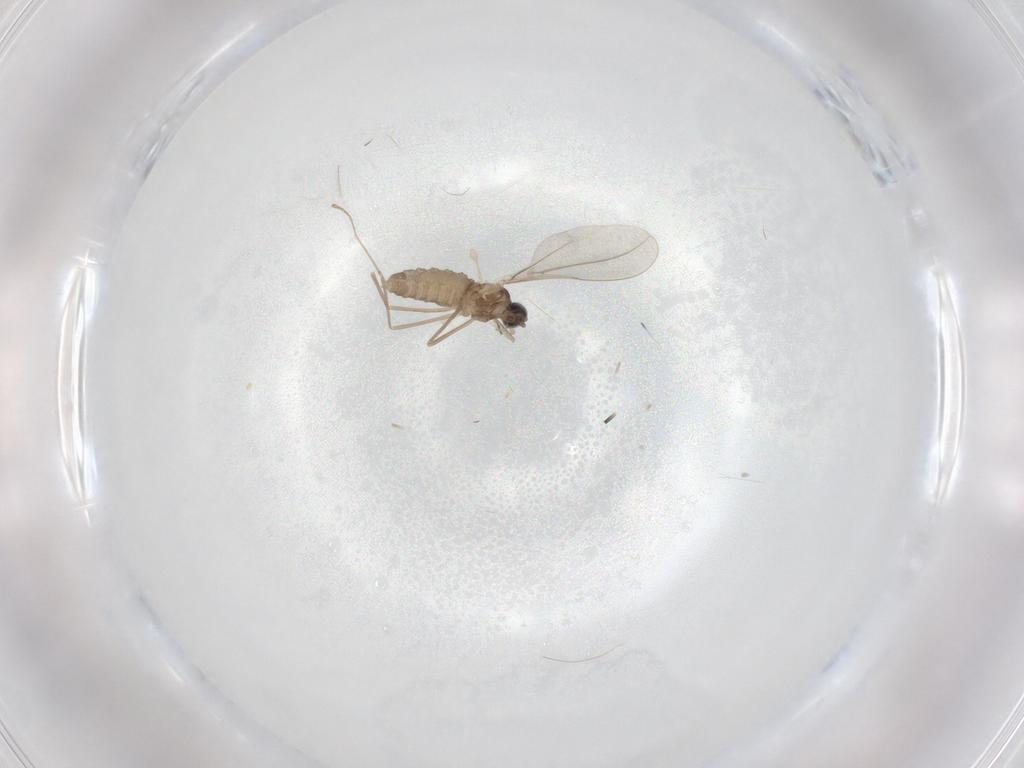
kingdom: Animalia
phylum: Arthropoda
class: Insecta
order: Diptera
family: Cecidomyiidae
